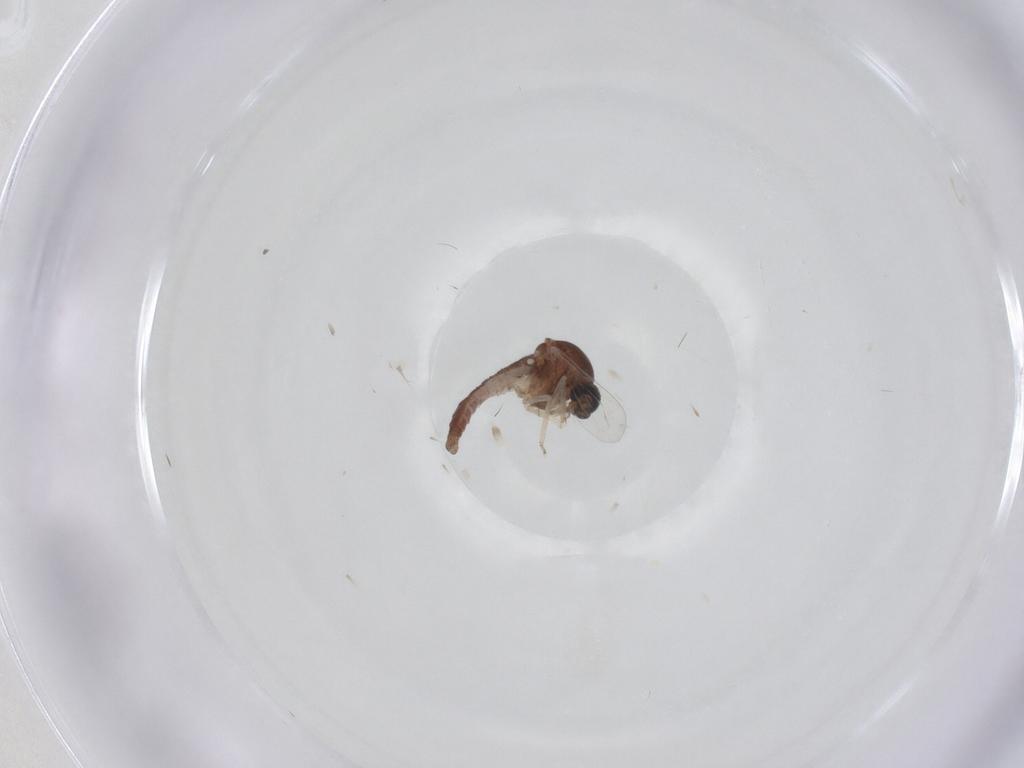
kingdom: Animalia
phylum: Arthropoda
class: Insecta
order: Diptera
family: Ceratopogonidae
